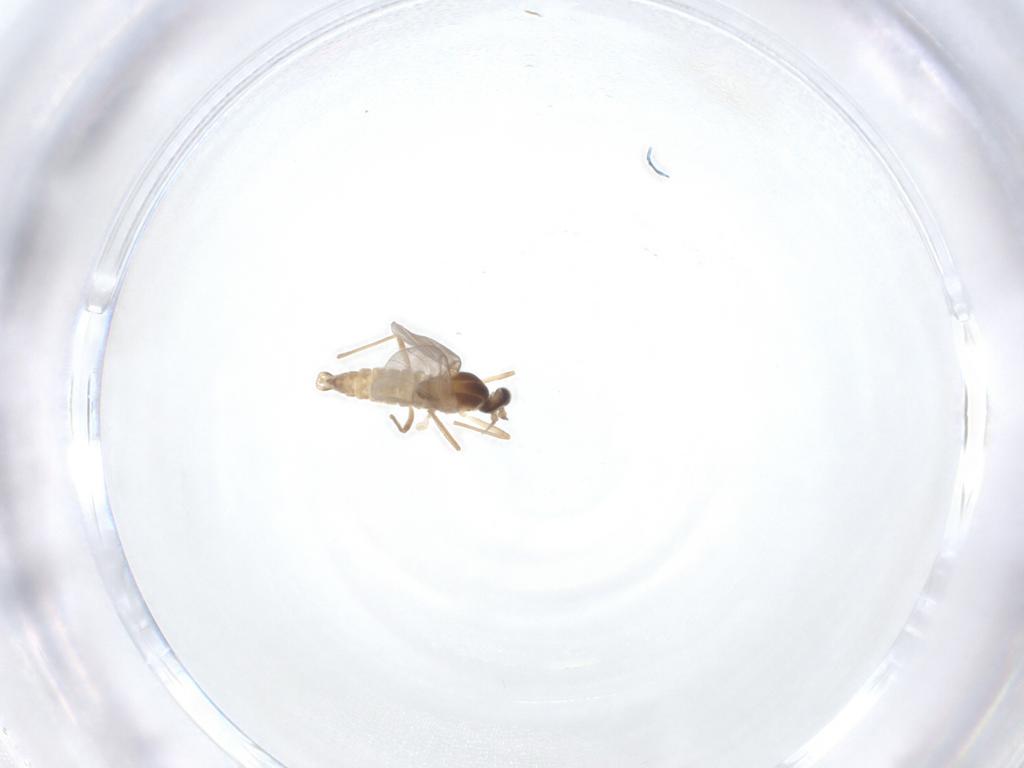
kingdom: Animalia
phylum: Arthropoda
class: Insecta
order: Diptera
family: Cecidomyiidae
